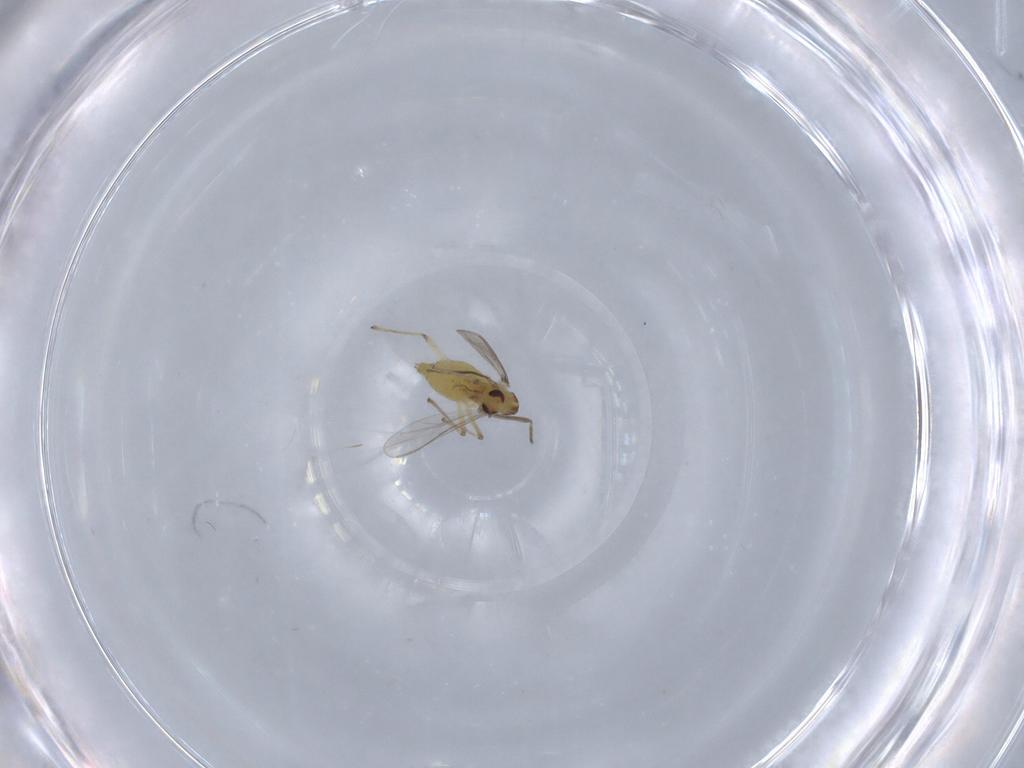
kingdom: Animalia
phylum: Arthropoda
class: Insecta
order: Diptera
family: Chironomidae
